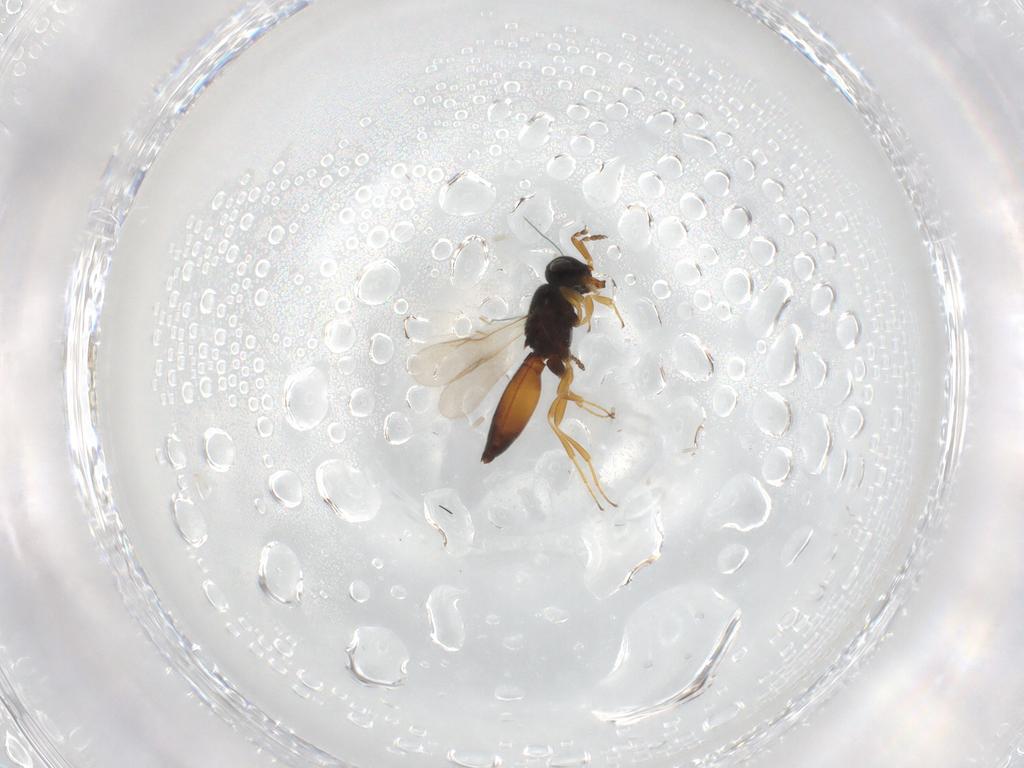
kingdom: Animalia
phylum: Arthropoda
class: Insecta
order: Hymenoptera
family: Scelionidae
